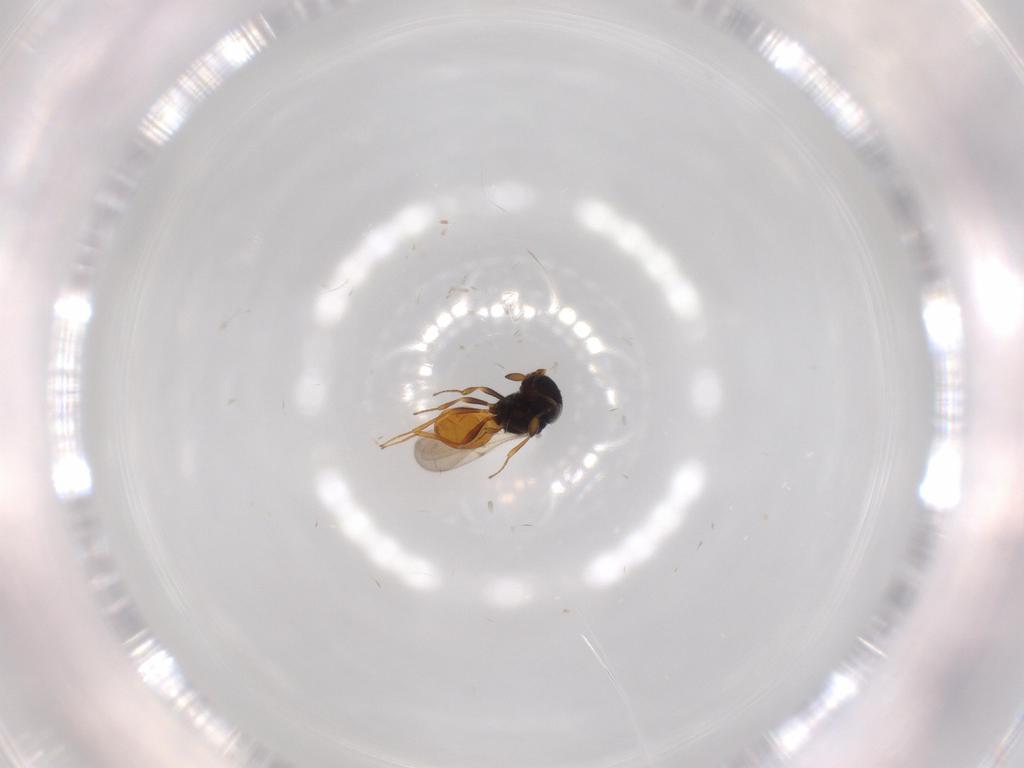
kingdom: Animalia
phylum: Arthropoda
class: Insecta
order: Hymenoptera
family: Scelionidae
